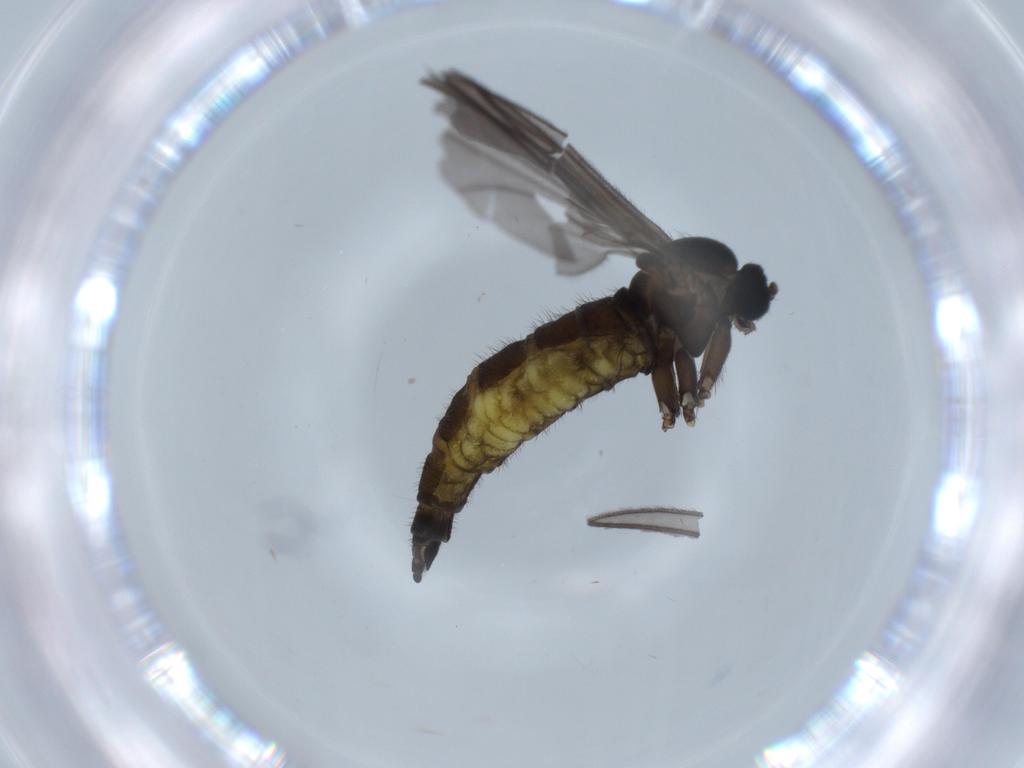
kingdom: Animalia
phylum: Arthropoda
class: Insecta
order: Diptera
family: Sciaridae
